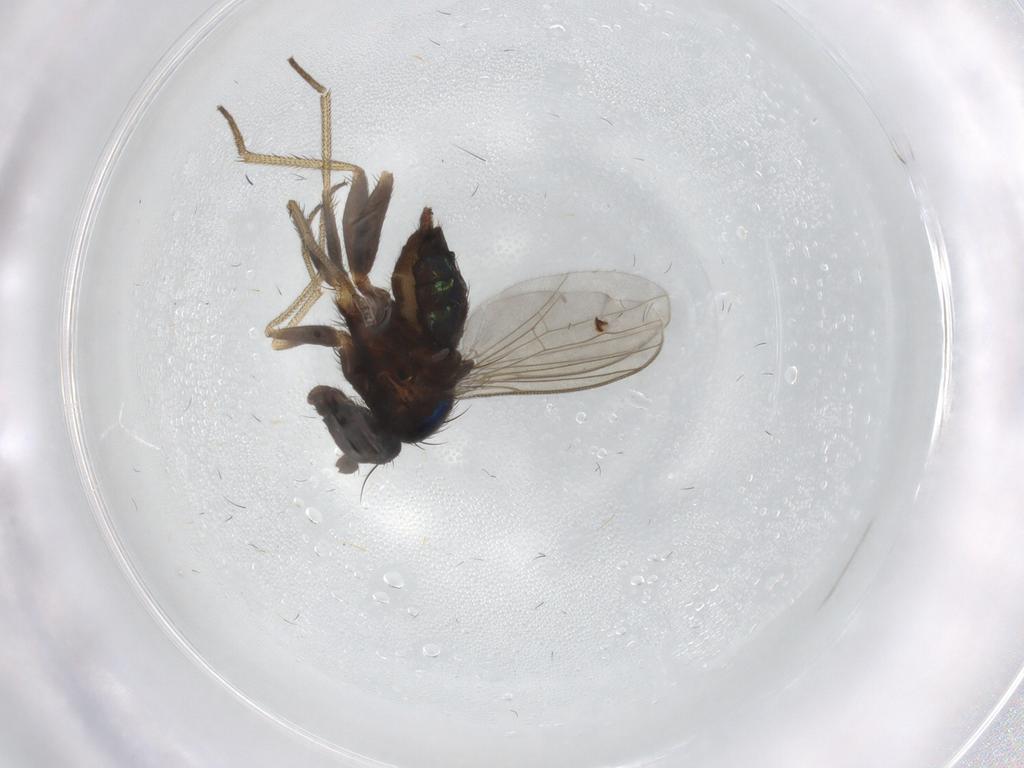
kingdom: Animalia
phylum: Arthropoda
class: Insecta
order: Diptera
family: Dolichopodidae
